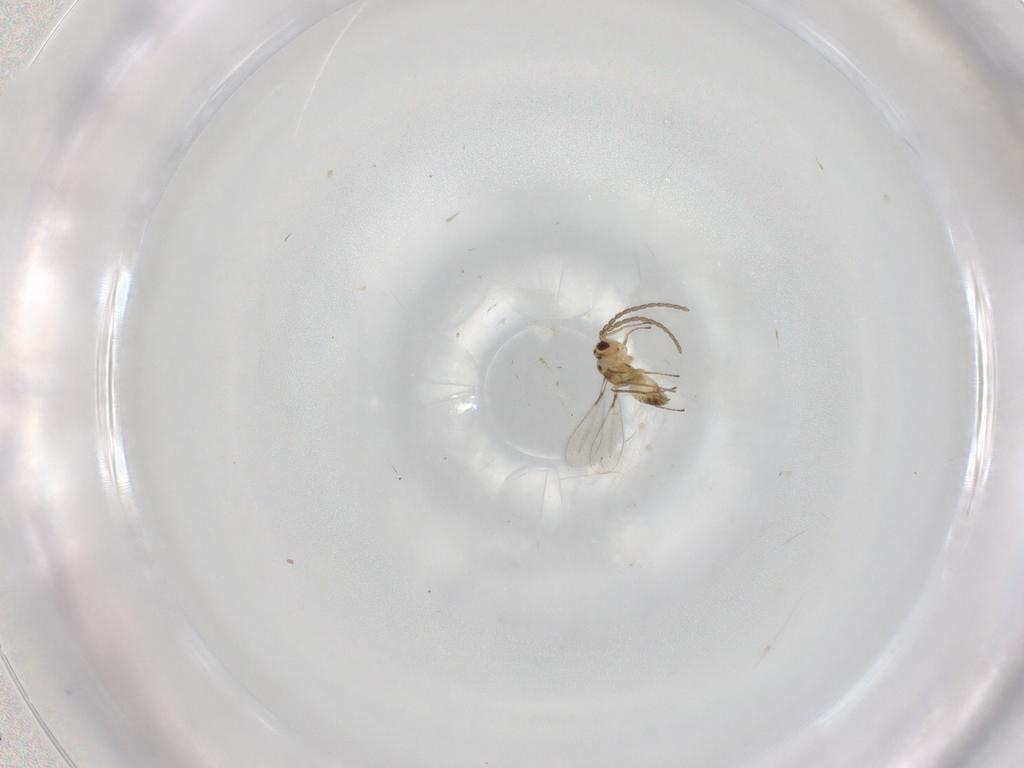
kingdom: Animalia
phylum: Arthropoda
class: Insecta
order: Hymenoptera
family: Mymaridae
